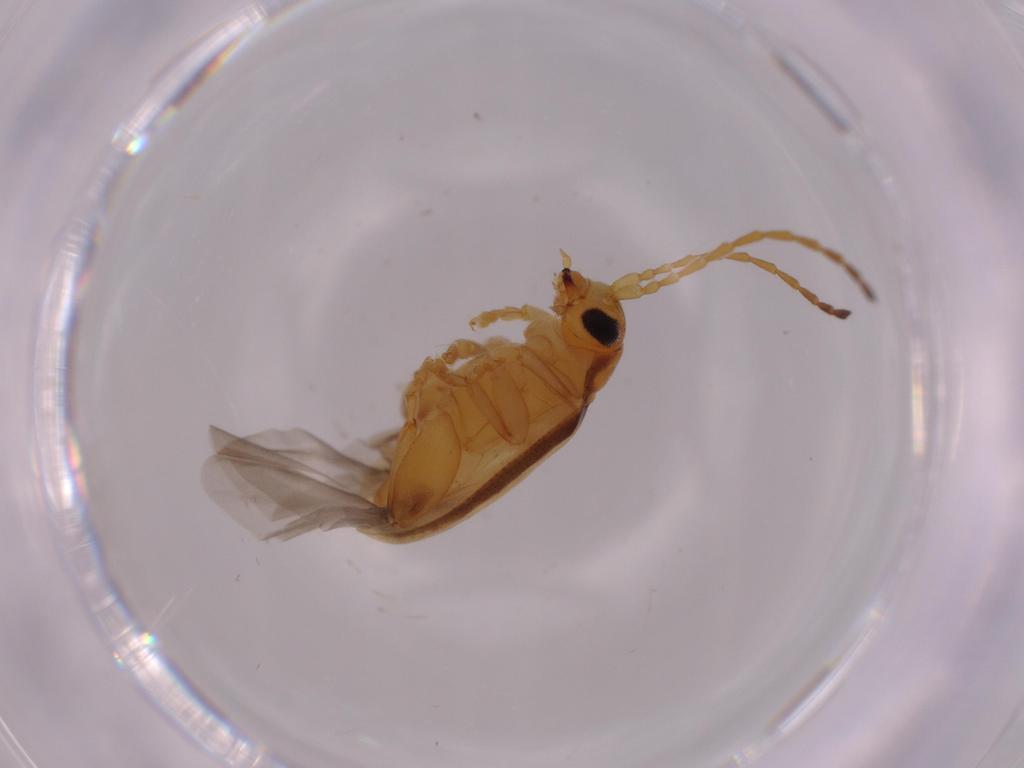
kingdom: Animalia
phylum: Arthropoda
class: Insecta
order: Coleoptera
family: Chrysomelidae
